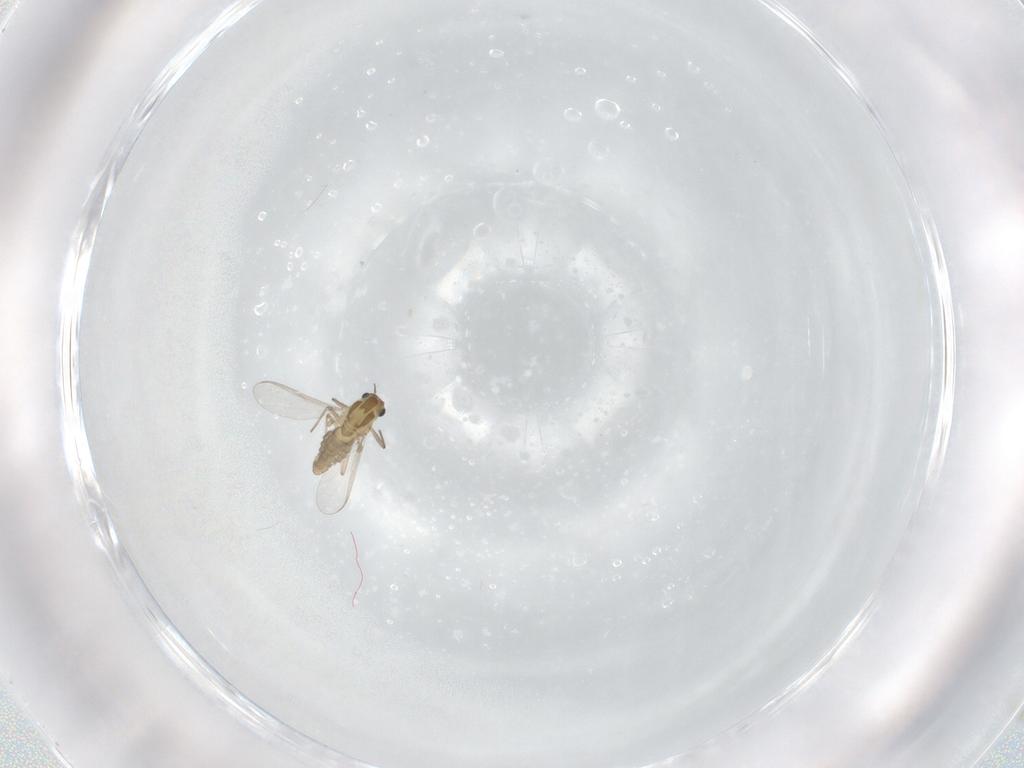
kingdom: Animalia
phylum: Arthropoda
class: Insecta
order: Diptera
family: Chironomidae
